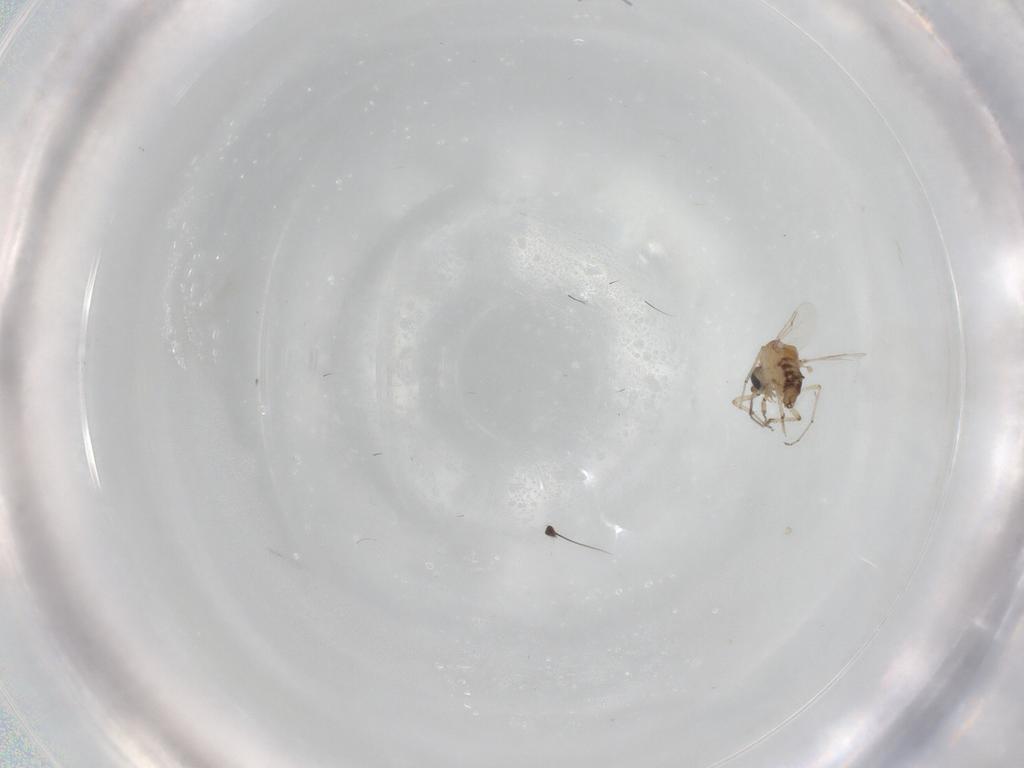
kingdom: Animalia
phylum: Arthropoda
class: Insecta
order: Diptera
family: Ceratopogonidae
